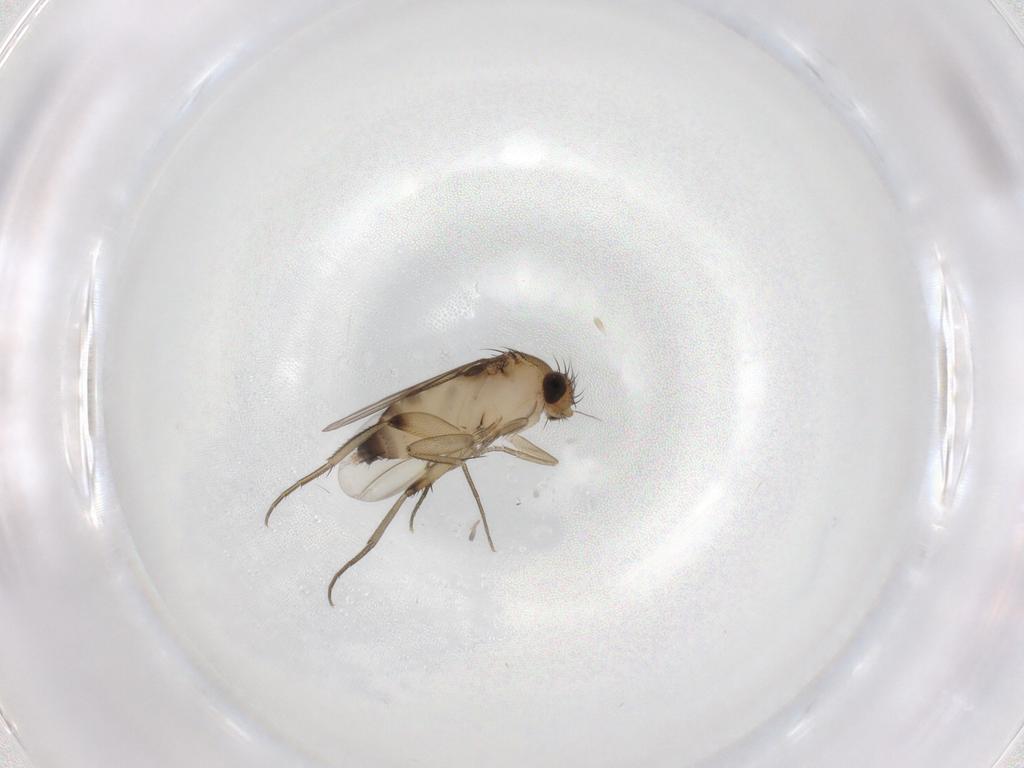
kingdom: Animalia
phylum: Arthropoda
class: Insecta
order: Diptera
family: Phoridae
